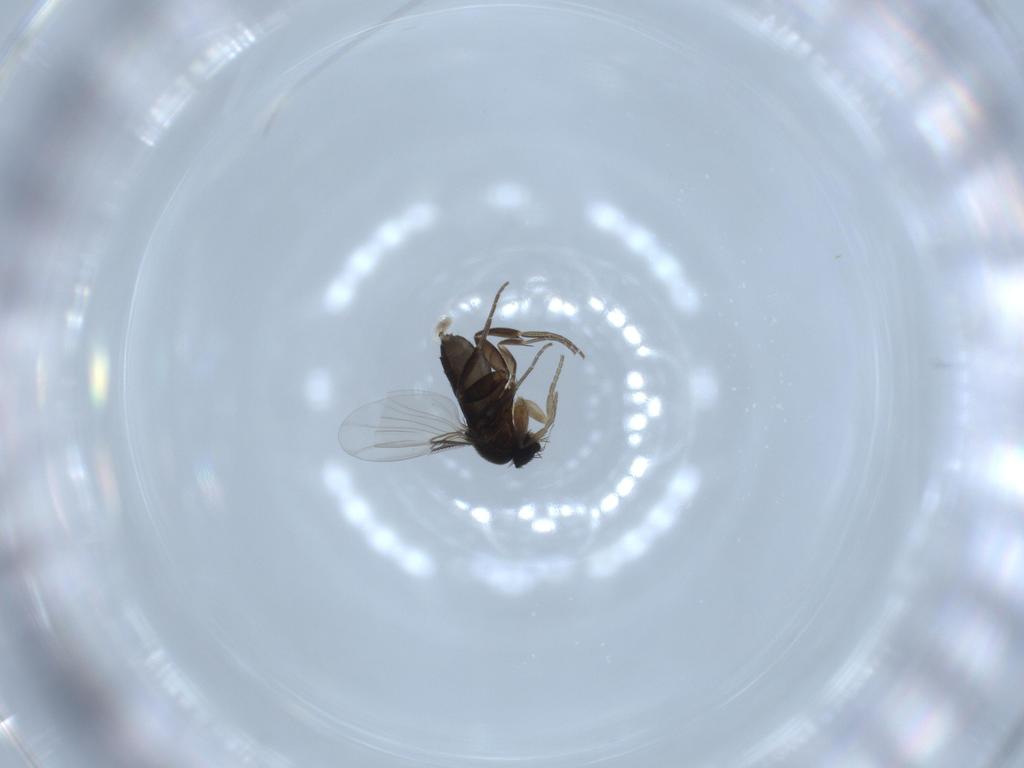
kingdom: Animalia
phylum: Arthropoda
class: Insecta
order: Diptera
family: Phoridae
